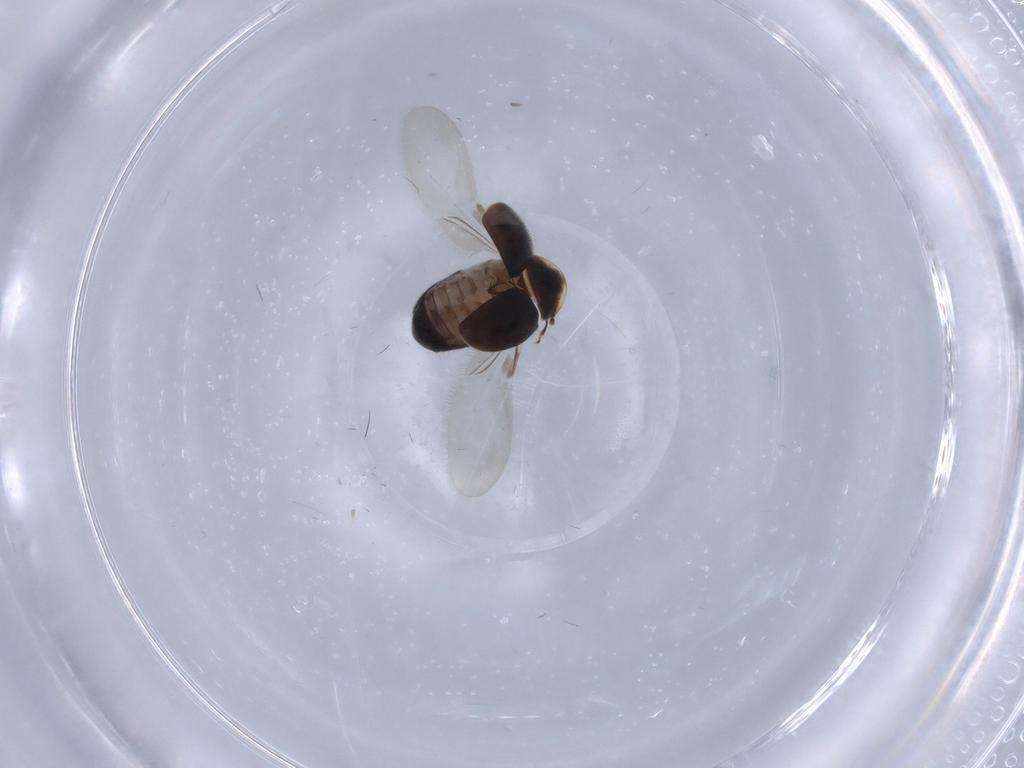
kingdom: Animalia
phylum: Arthropoda
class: Insecta
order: Coleoptera
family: Corylophidae
